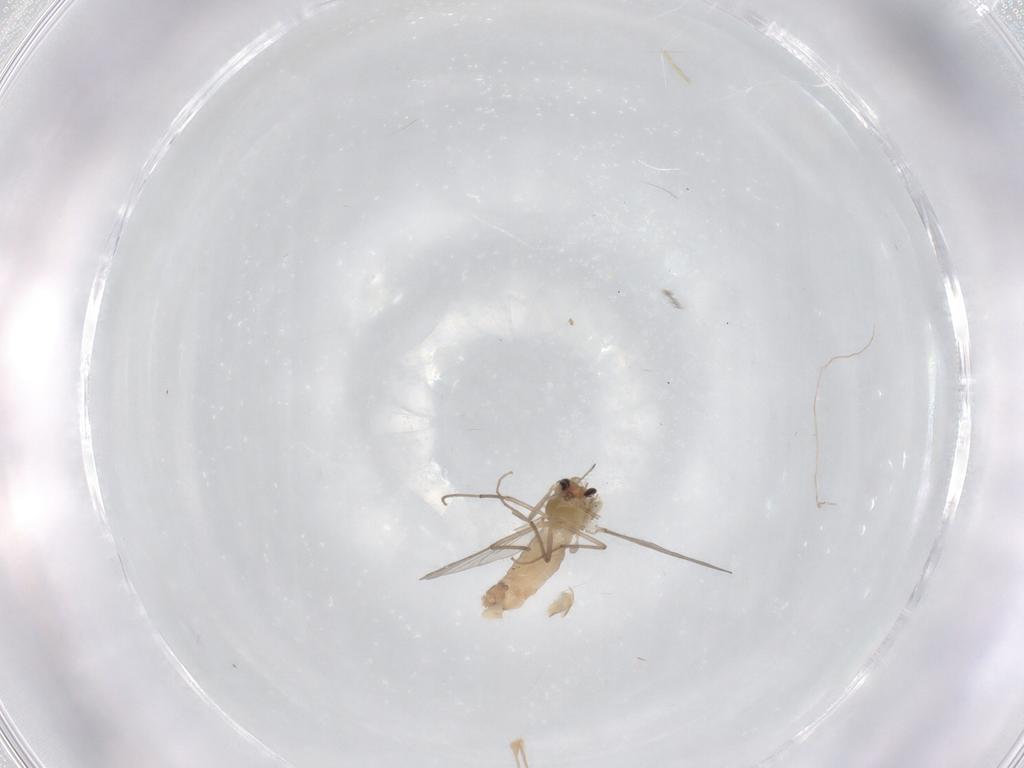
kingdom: Animalia
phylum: Arthropoda
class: Insecta
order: Diptera
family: Chironomidae
